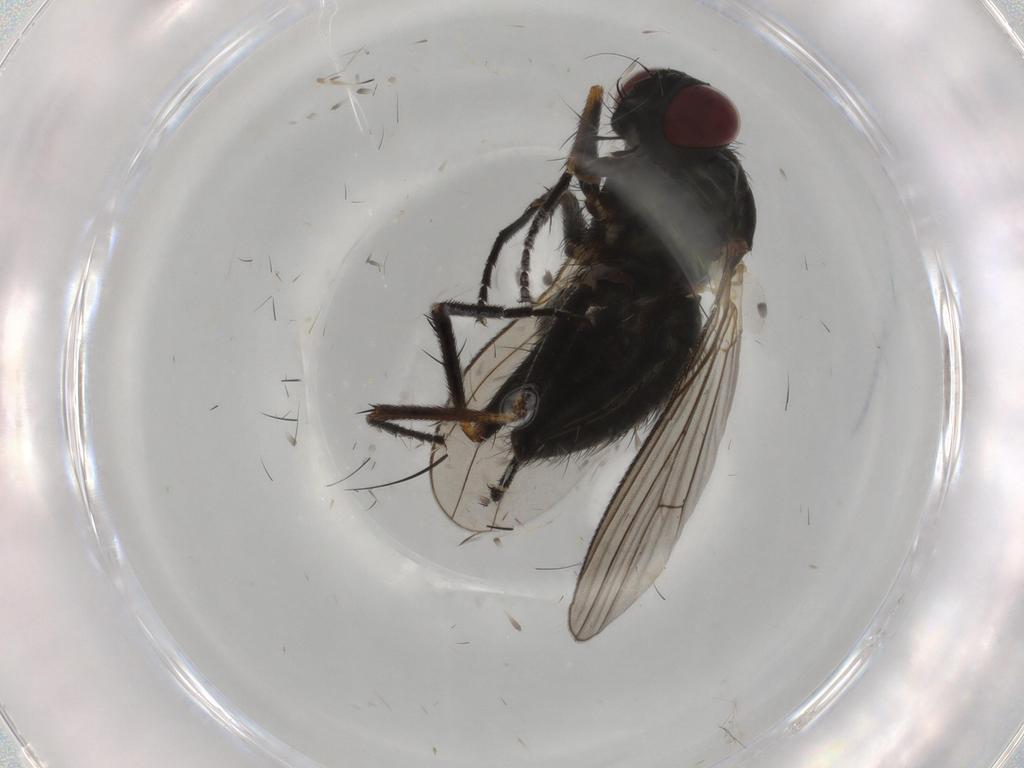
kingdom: Animalia
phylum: Arthropoda
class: Insecta
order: Diptera
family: Muscidae
